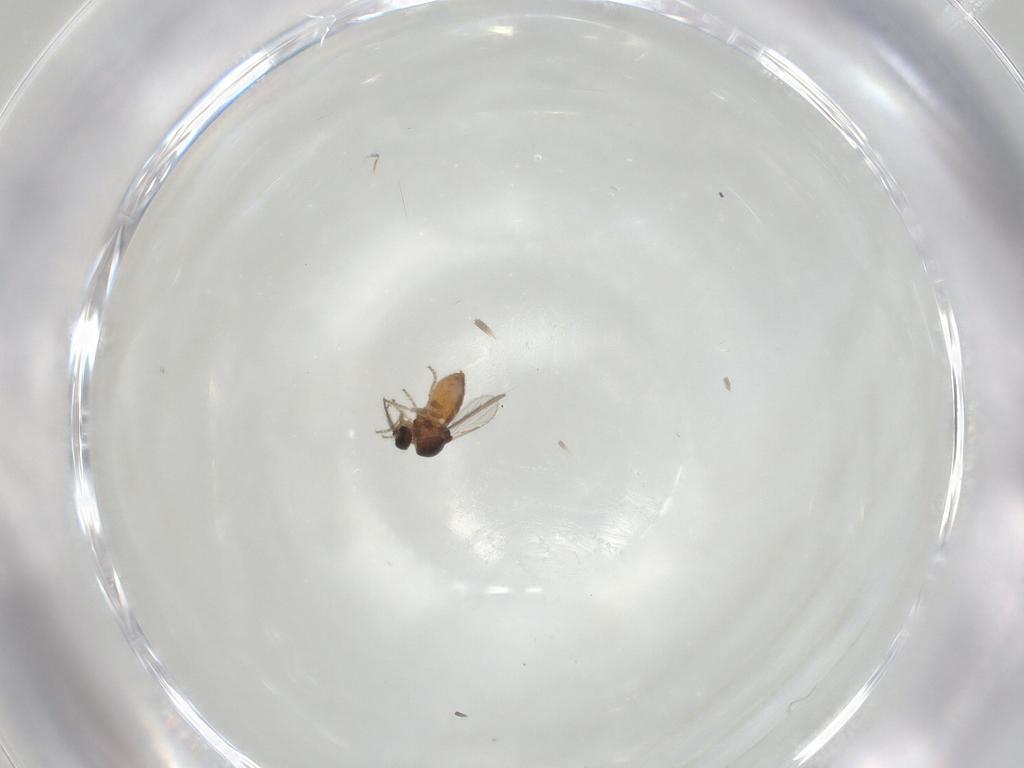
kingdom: Animalia
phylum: Arthropoda
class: Insecta
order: Diptera
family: Ceratopogonidae
